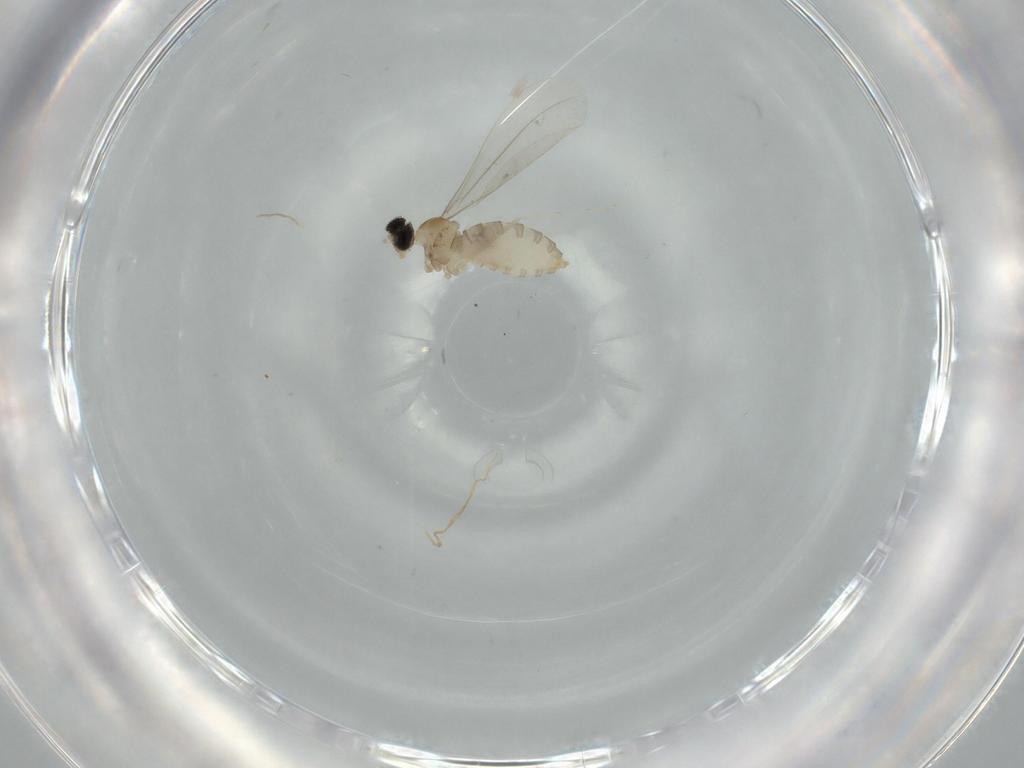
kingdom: Animalia
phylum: Arthropoda
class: Insecta
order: Diptera
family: Cecidomyiidae
